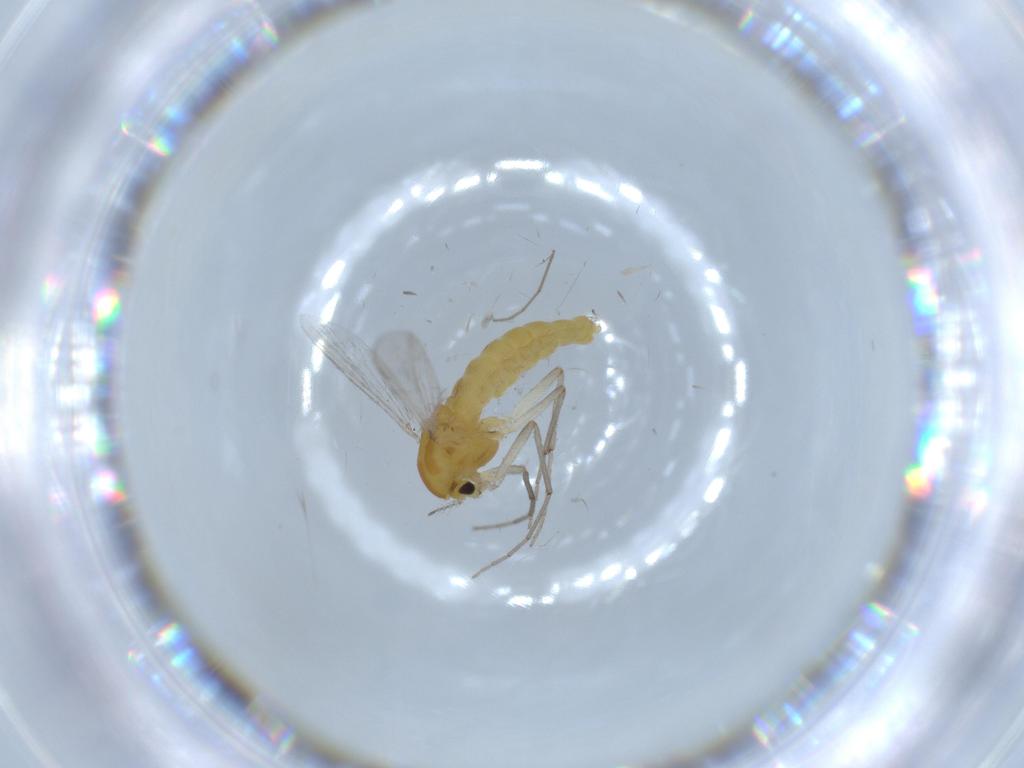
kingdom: Animalia
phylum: Arthropoda
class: Insecta
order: Diptera
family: Chironomidae
